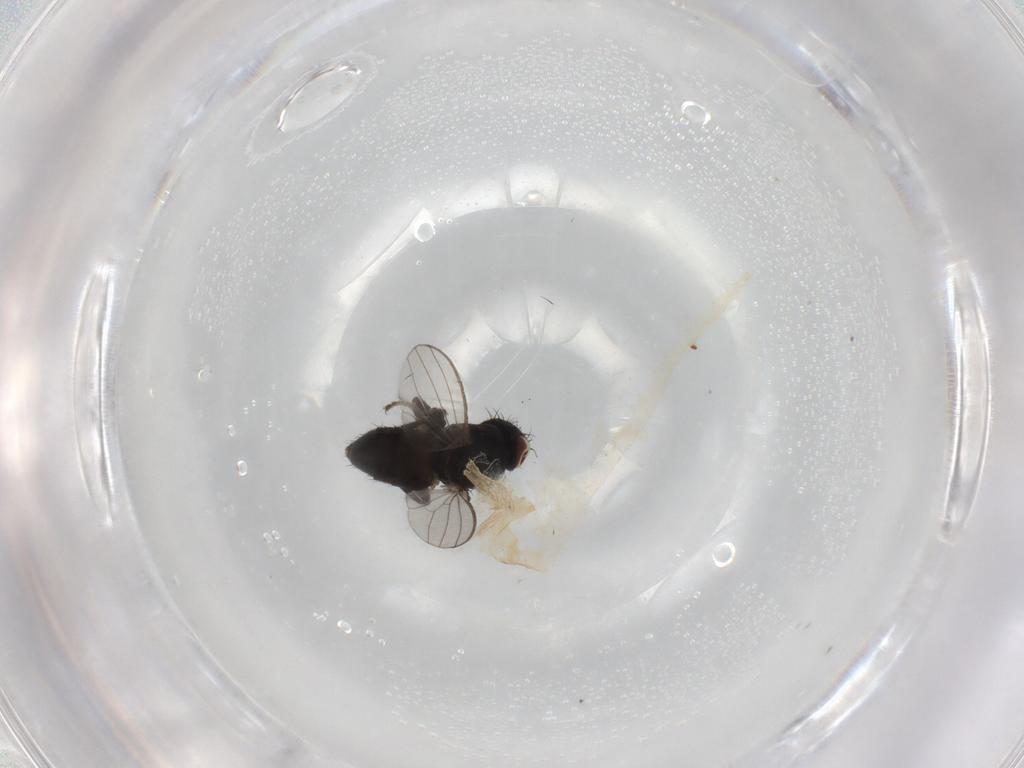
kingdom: Animalia
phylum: Arthropoda
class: Insecta
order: Diptera
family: Milichiidae
